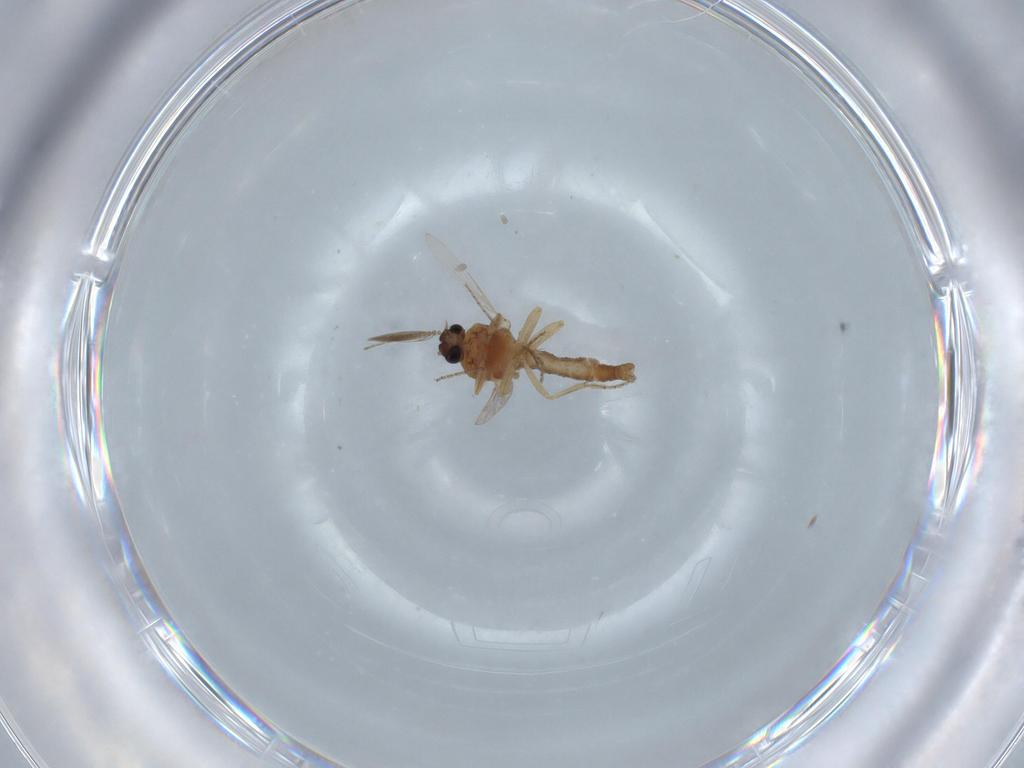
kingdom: Animalia
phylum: Arthropoda
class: Insecta
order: Diptera
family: Ceratopogonidae
